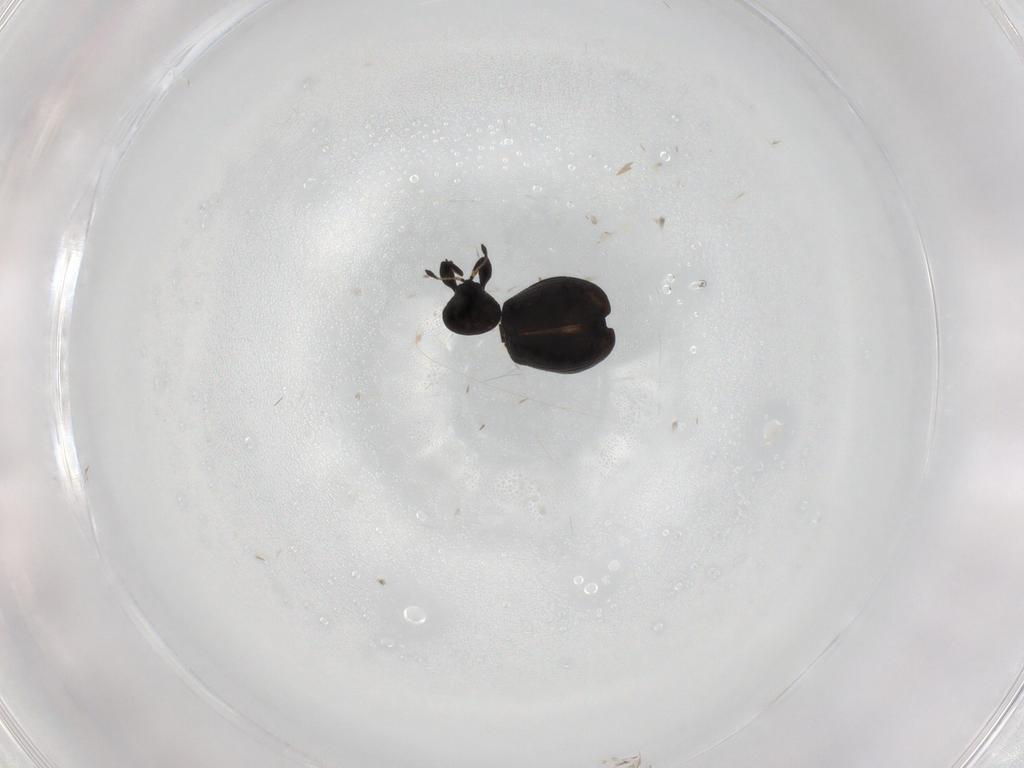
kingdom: Animalia
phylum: Arthropoda
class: Insecta
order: Coleoptera
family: Curculionidae
